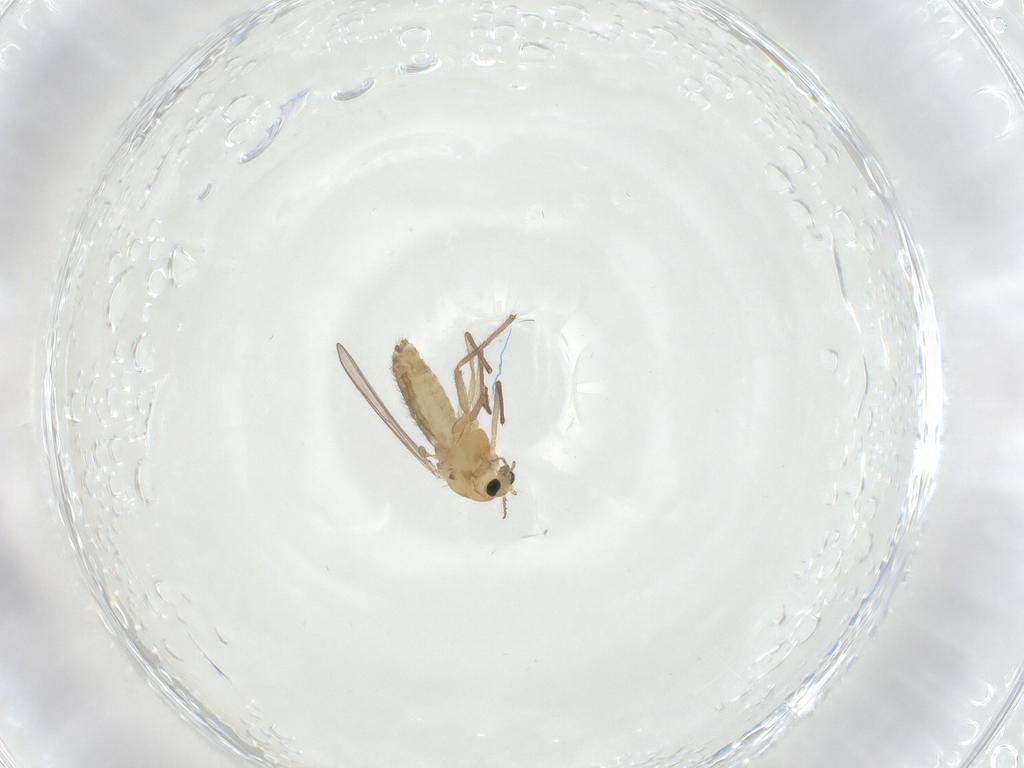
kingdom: Animalia
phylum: Arthropoda
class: Insecta
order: Diptera
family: Chironomidae
